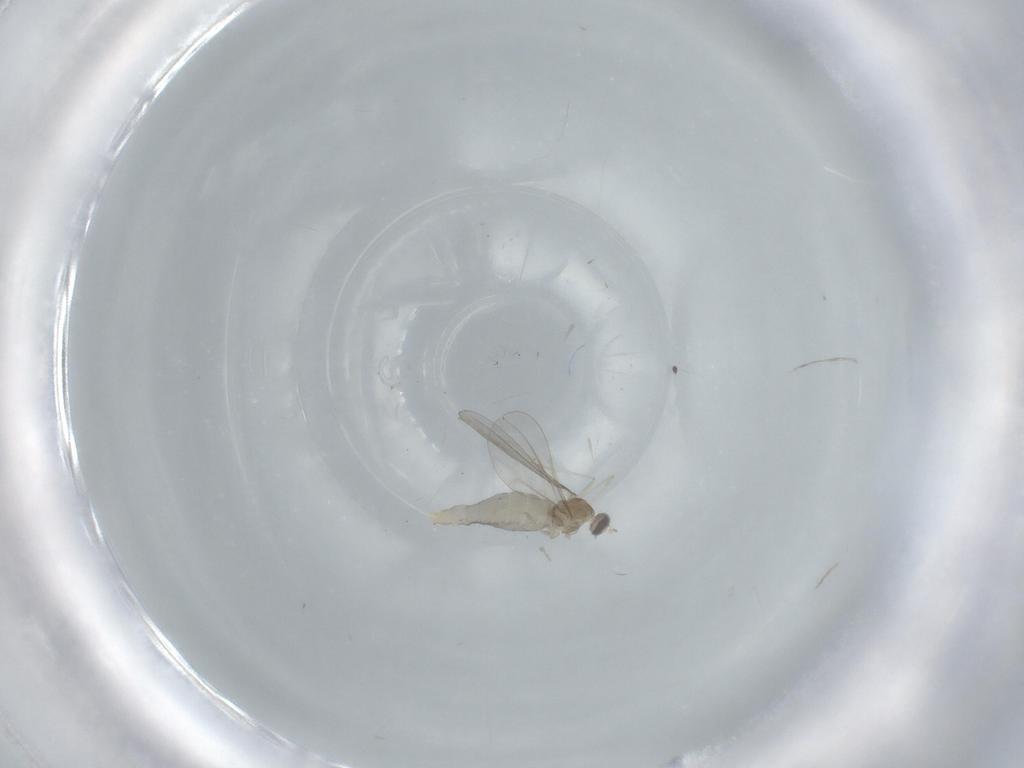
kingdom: Animalia
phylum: Arthropoda
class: Insecta
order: Diptera
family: Cecidomyiidae
